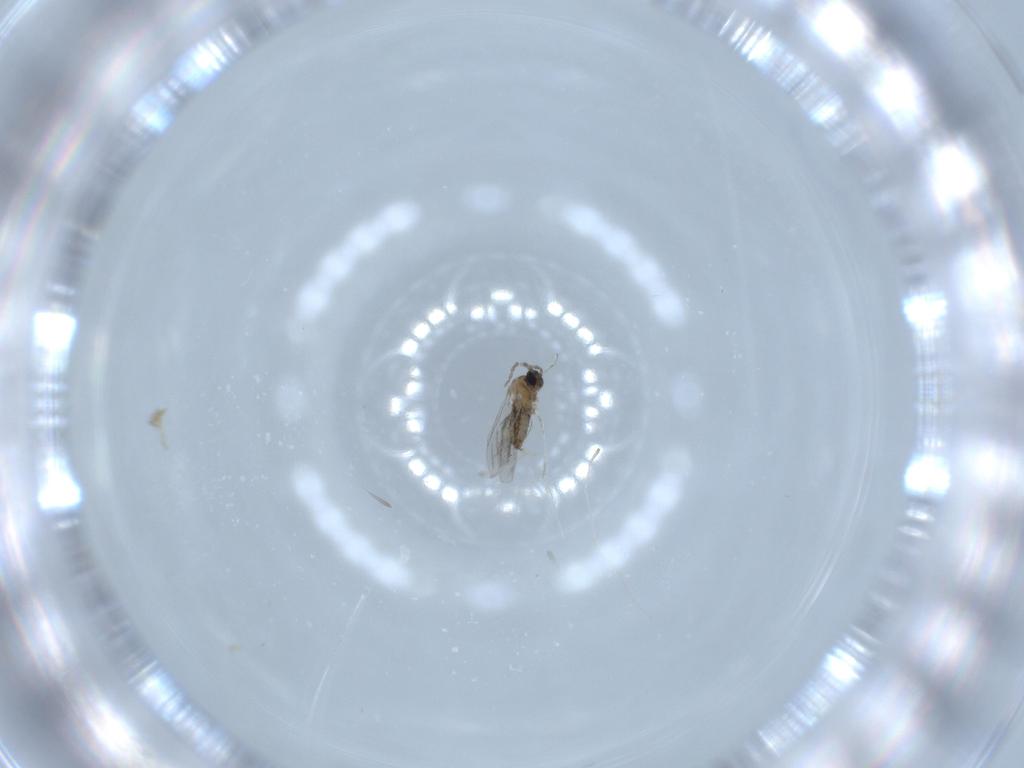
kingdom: Animalia
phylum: Arthropoda
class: Insecta
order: Diptera
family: Cecidomyiidae
